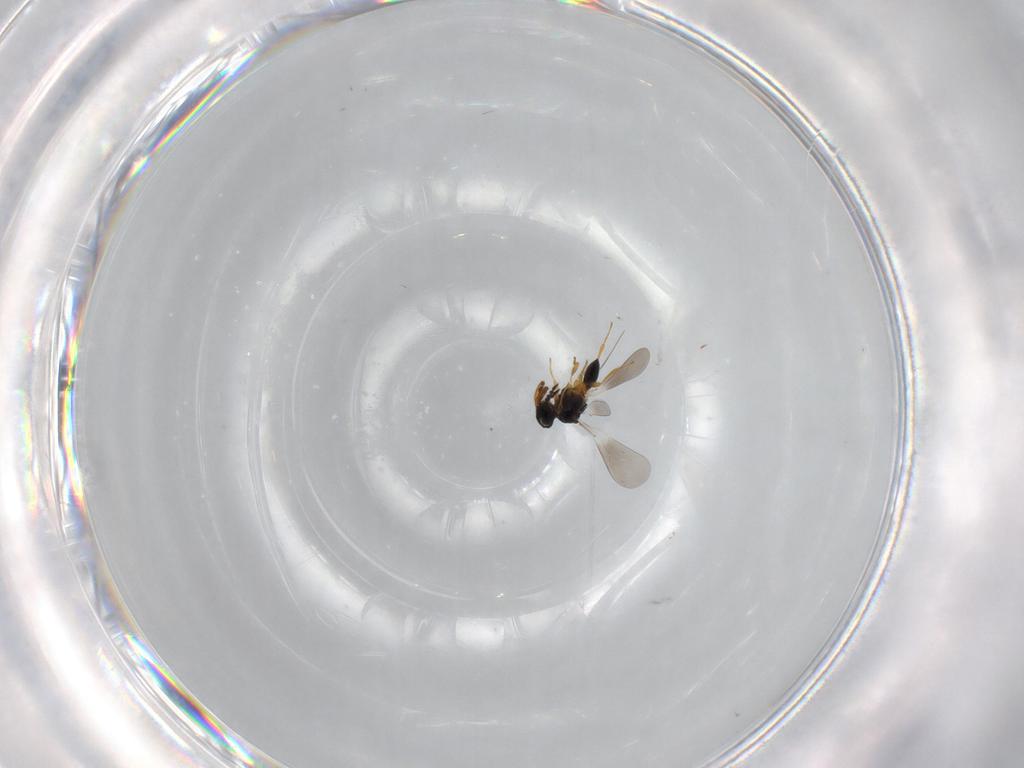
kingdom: Animalia
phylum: Arthropoda
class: Insecta
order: Hymenoptera
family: Platygastridae
